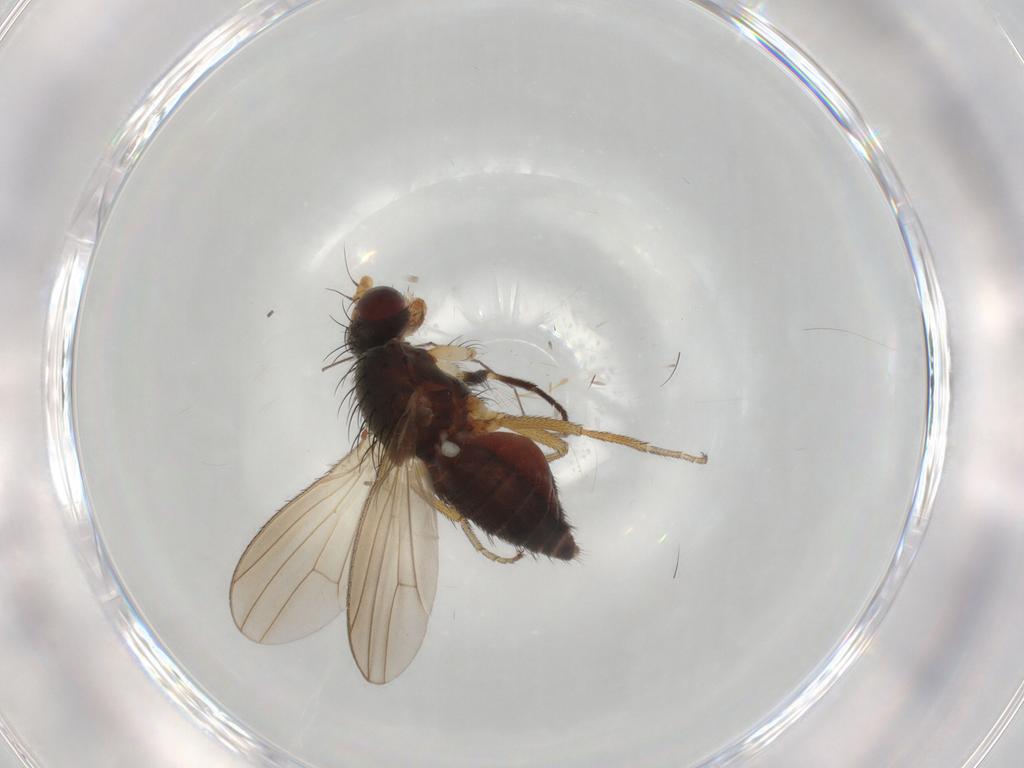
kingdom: Animalia
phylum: Arthropoda
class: Insecta
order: Diptera
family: Heleomyzidae
